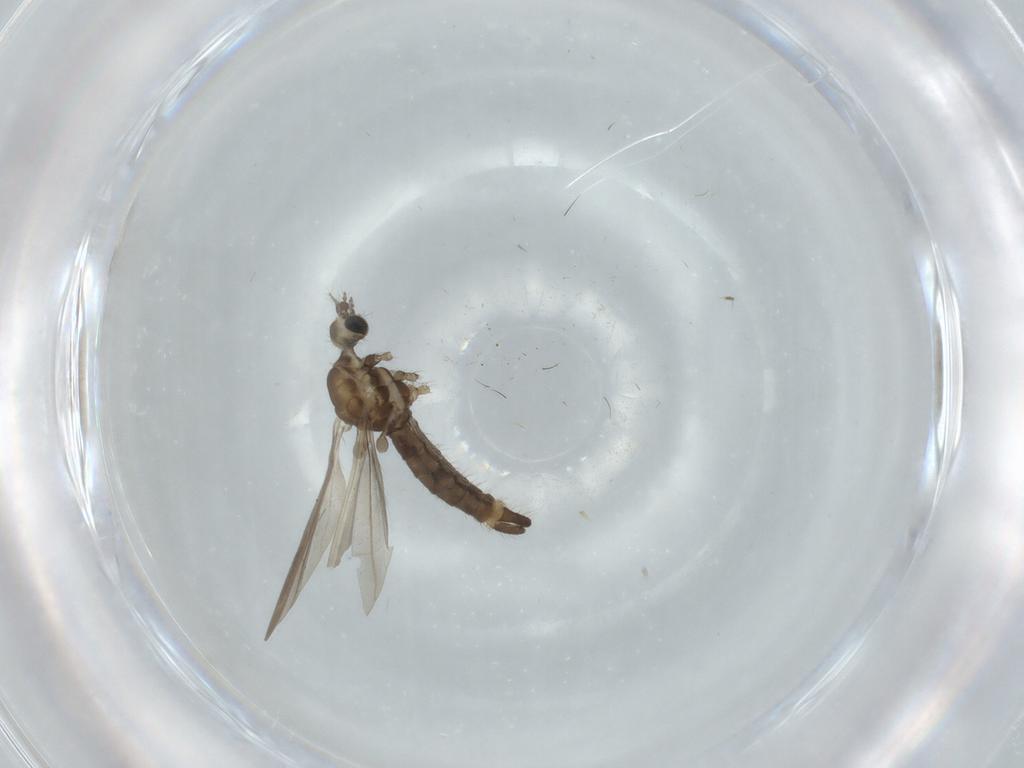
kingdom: Animalia
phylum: Arthropoda
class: Insecta
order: Diptera
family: Limoniidae
